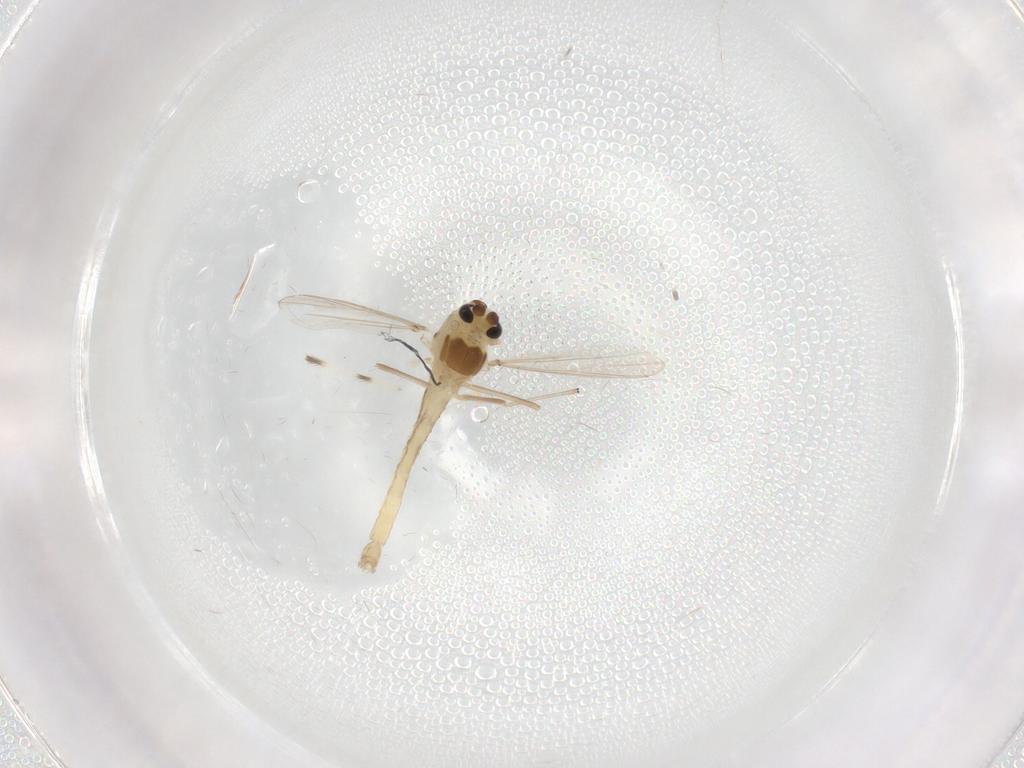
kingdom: Animalia
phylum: Arthropoda
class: Insecta
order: Diptera
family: Chironomidae
